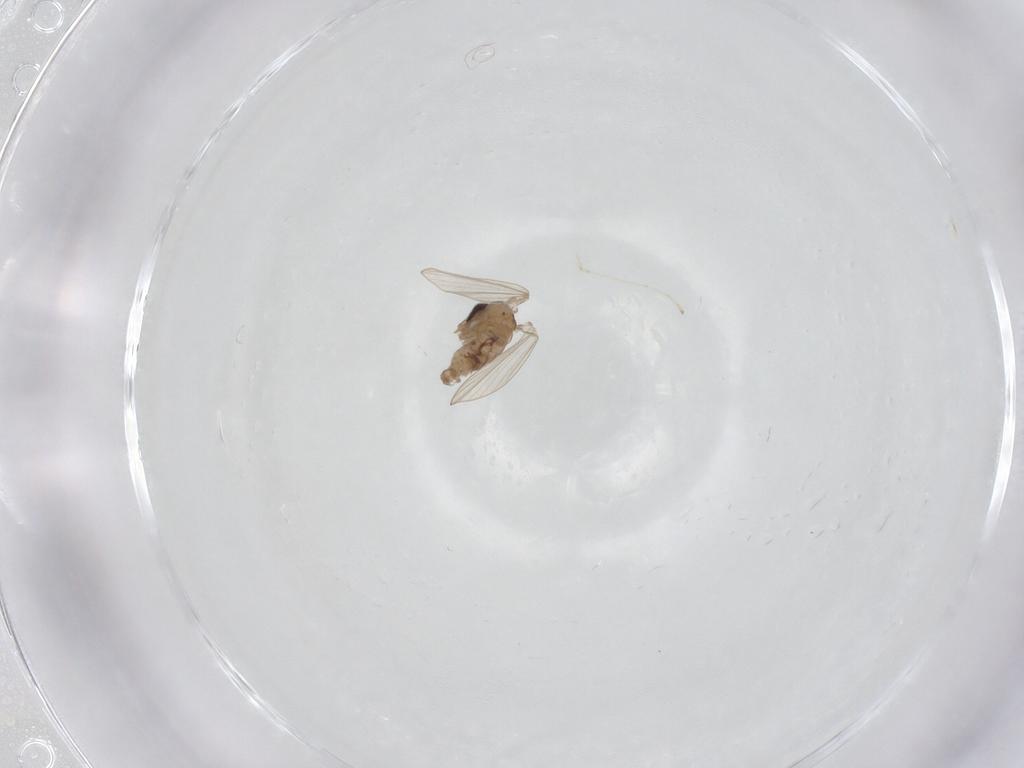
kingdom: Animalia
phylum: Arthropoda
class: Insecta
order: Diptera
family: Psychodidae
